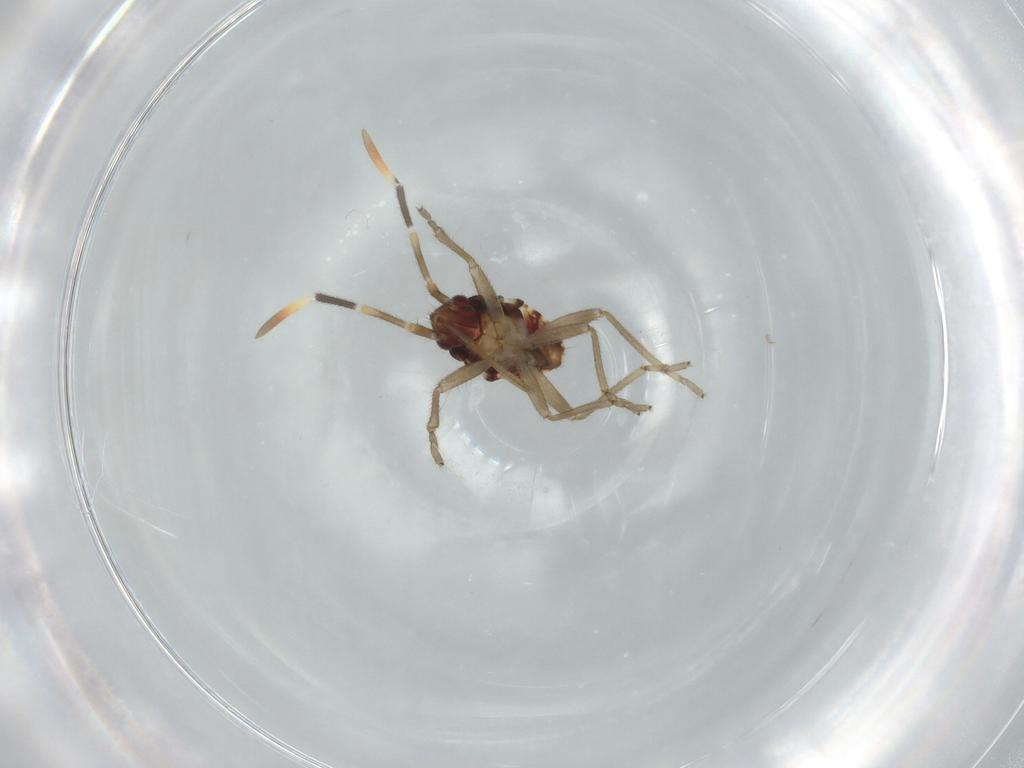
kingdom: Animalia
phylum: Arthropoda
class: Insecta
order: Hemiptera
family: Rhyparochromidae
